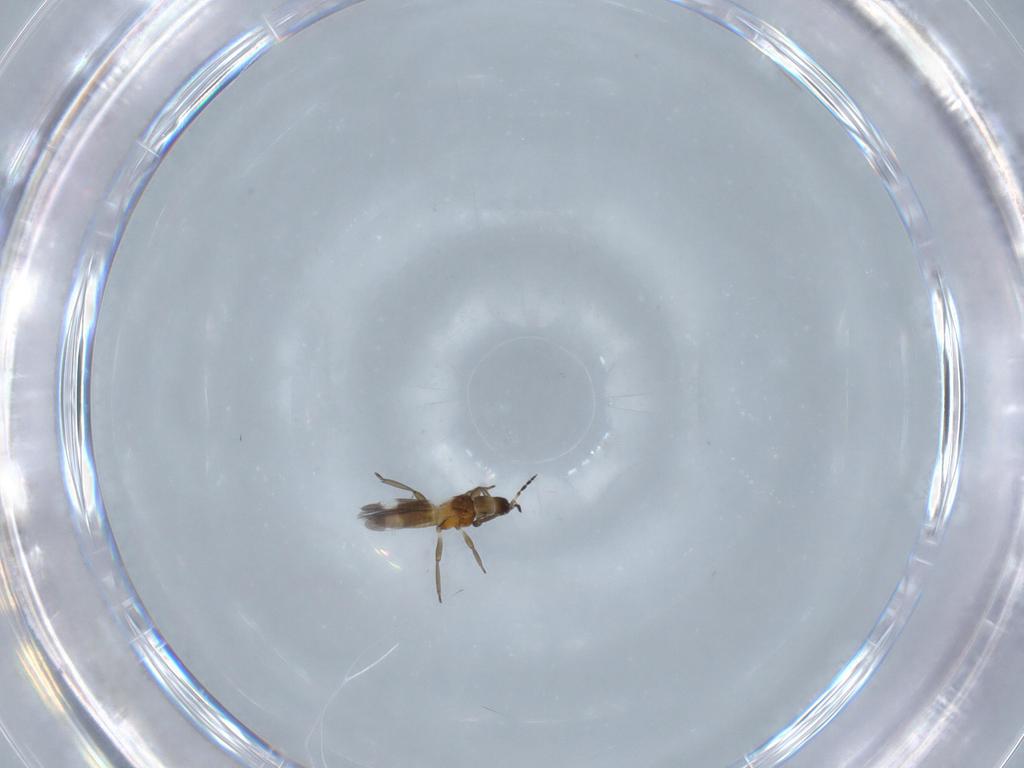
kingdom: Animalia
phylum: Arthropoda
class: Insecta
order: Thysanoptera
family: Aeolothripidae
